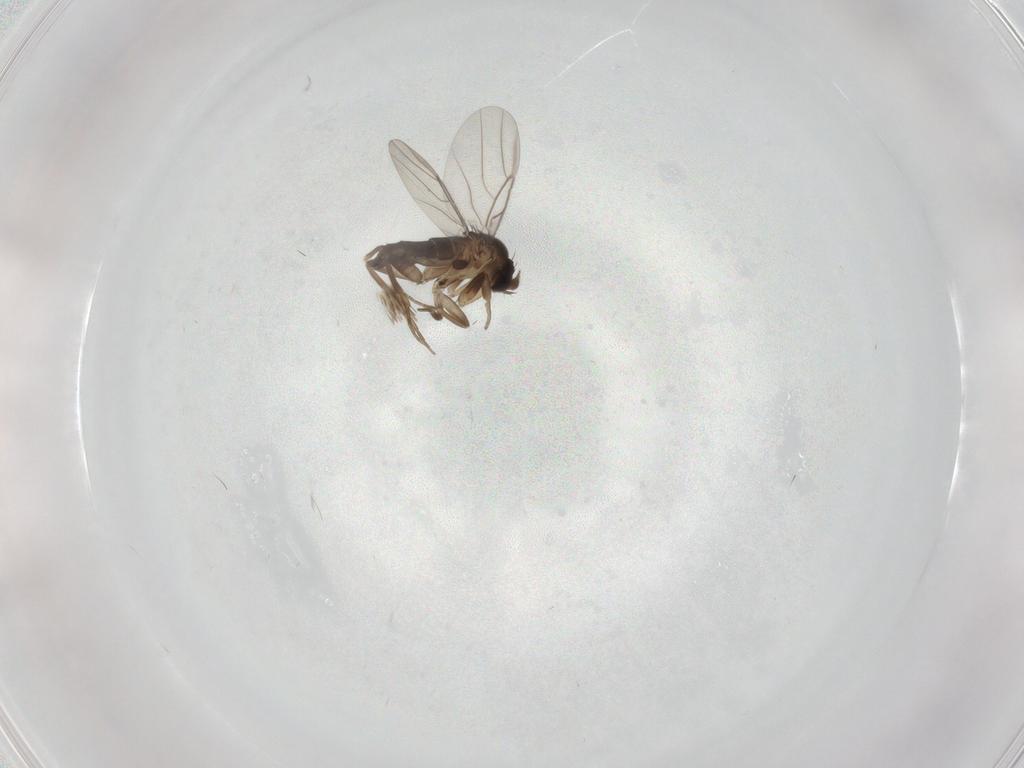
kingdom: Animalia
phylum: Arthropoda
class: Insecta
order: Diptera
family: Phoridae
